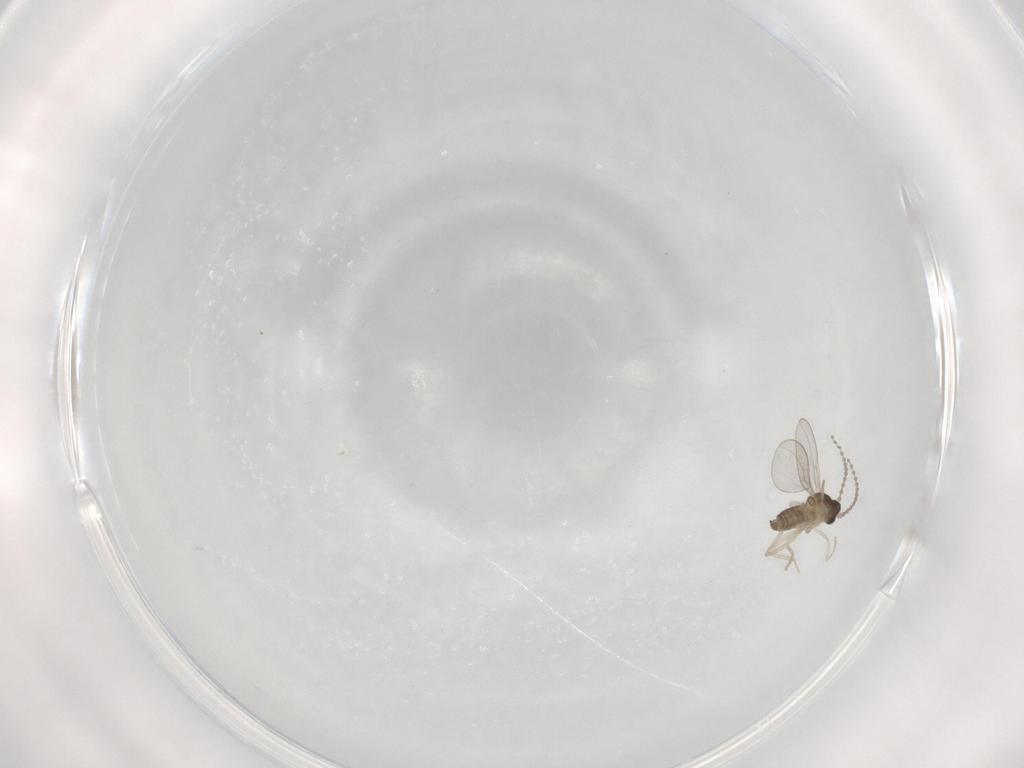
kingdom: Animalia
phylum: Arthropoda
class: Insecta
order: Diptera
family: Cecidomyiidae
